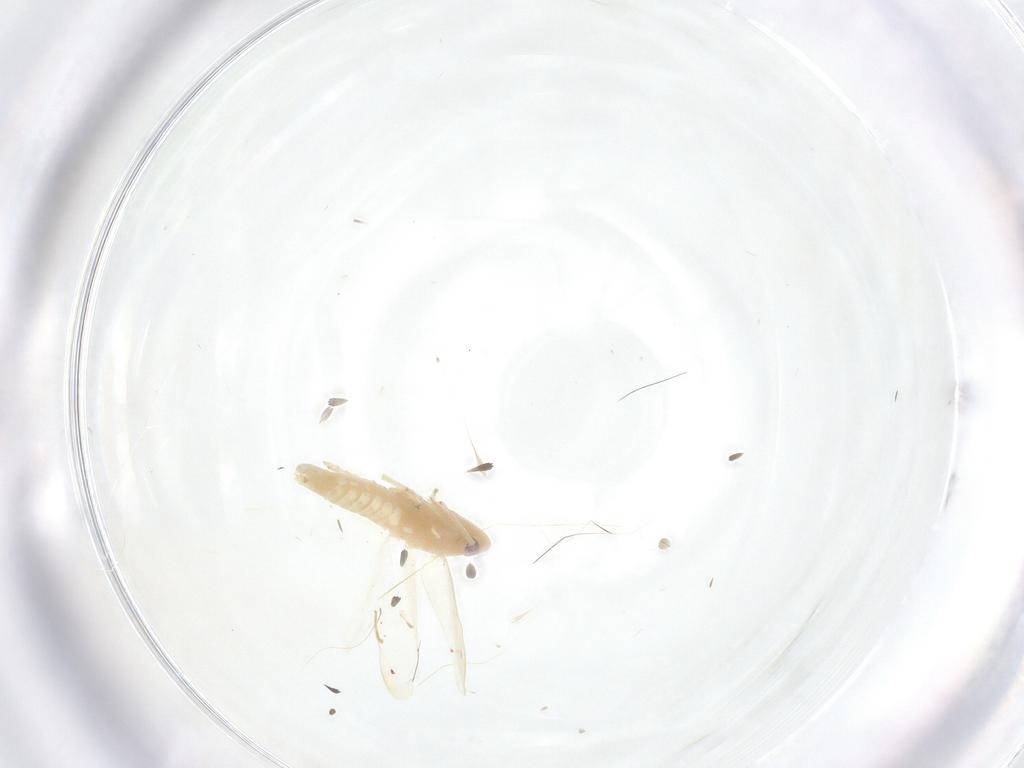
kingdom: Animalia
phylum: Arthropoda
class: Insecta
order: Hemiptera
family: Cicadellidae
